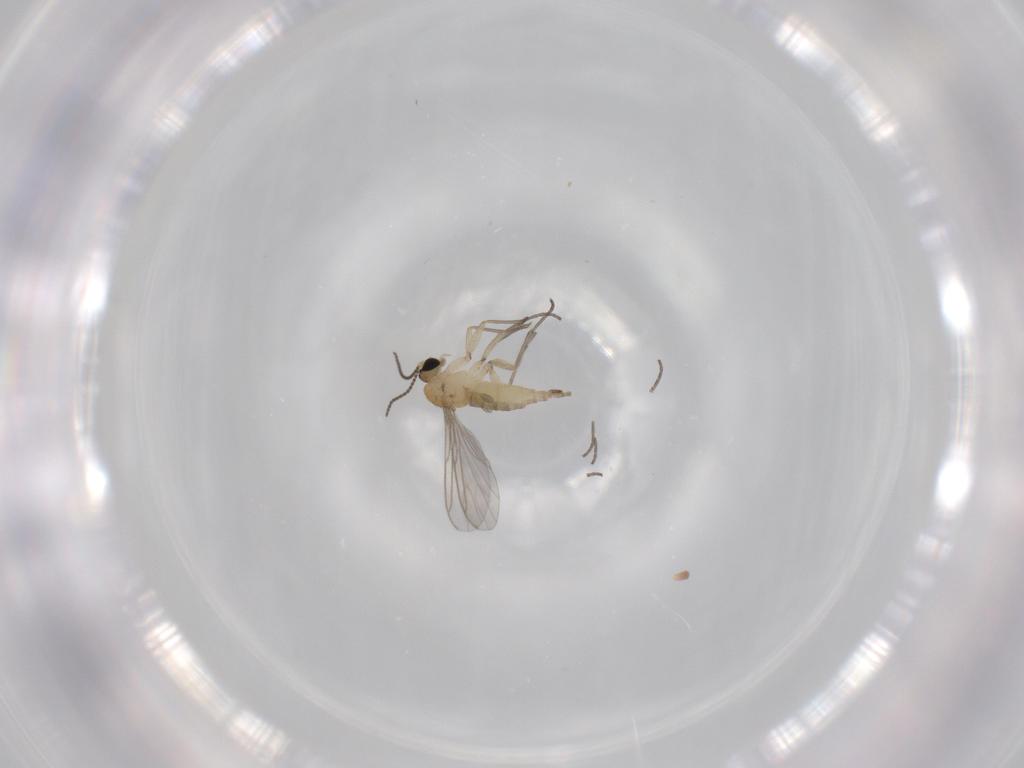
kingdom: Animalia
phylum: Arthropoda
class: Insecta
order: Diptera
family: Sciaridae
